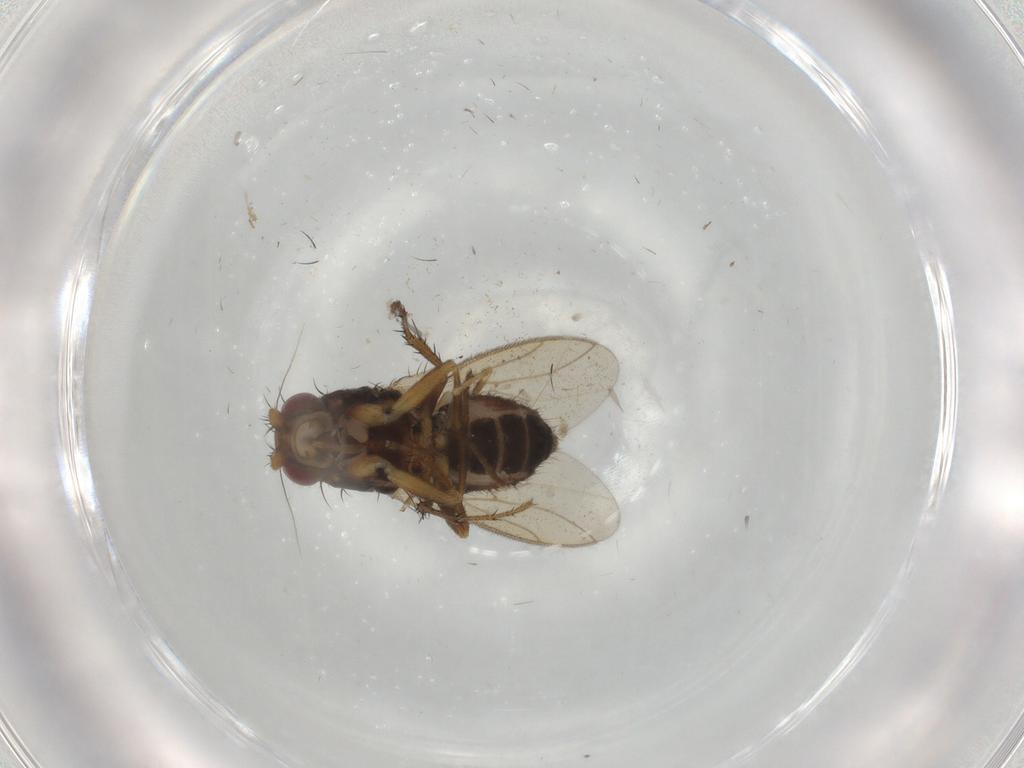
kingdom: Animalia
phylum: Arthropoda
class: Insecta
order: Diptera
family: Sphaeroceridae
